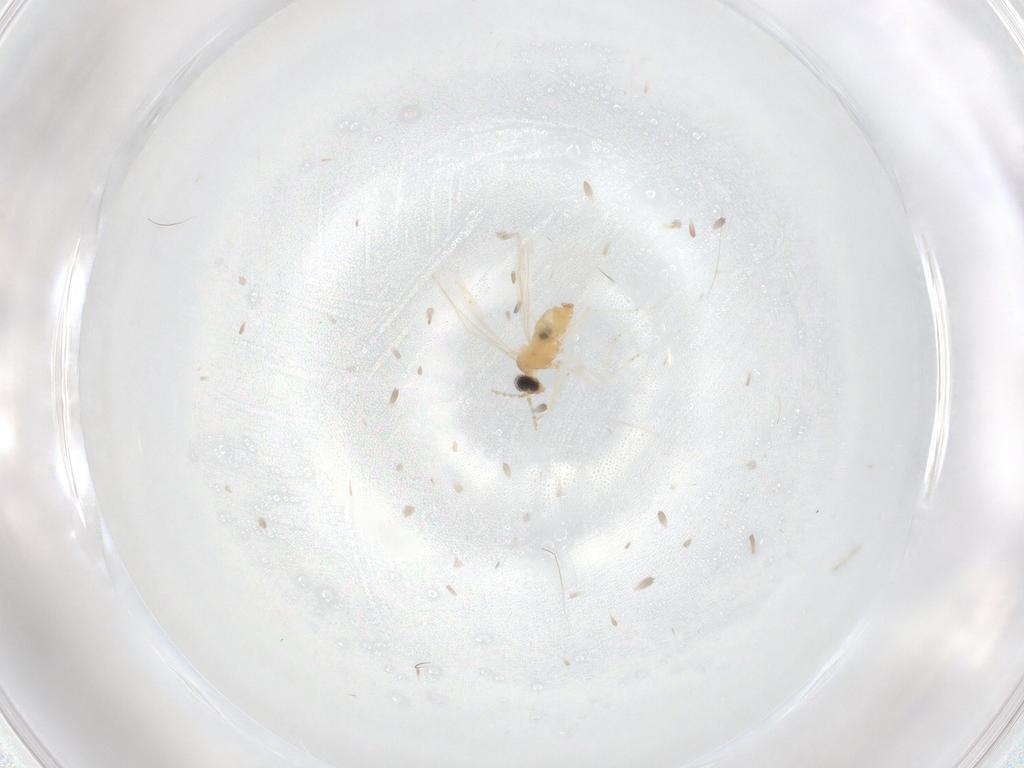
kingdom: Animalia
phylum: Arthropoda
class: Insecta
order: Diptera
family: Cecidomyiidae
